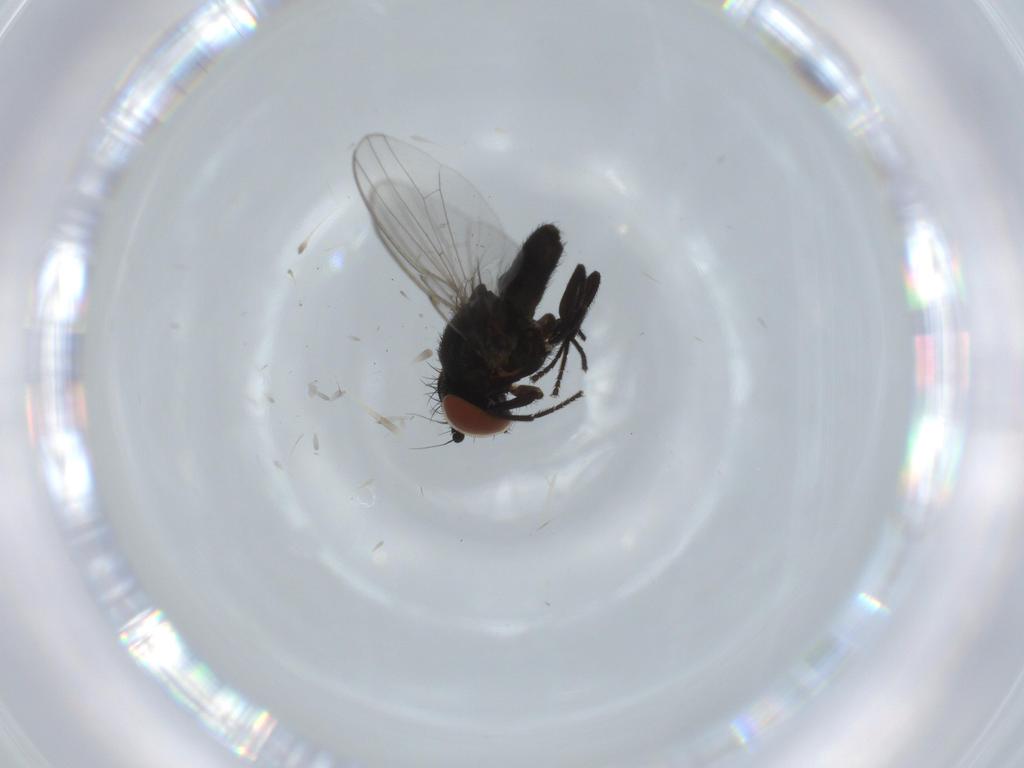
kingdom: Animalia
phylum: Arthropoda
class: Insecta
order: Diptera
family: Milichiidae
